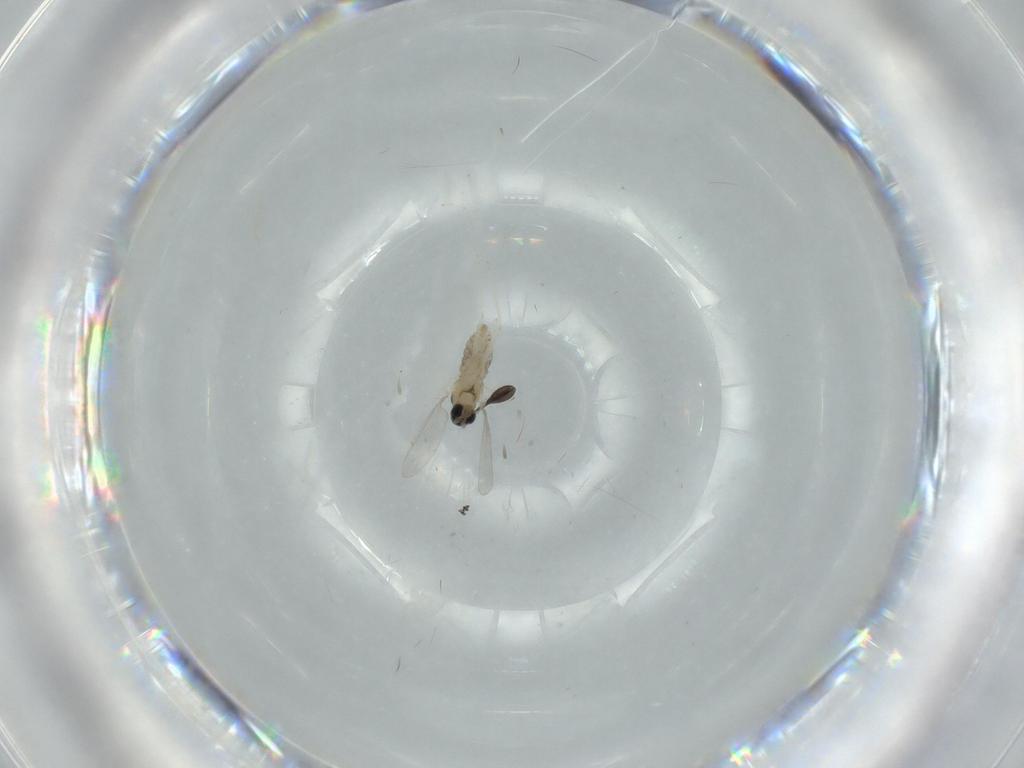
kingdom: Animalia
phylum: Arthropoda
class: Insecta
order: Diptera
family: Cecidomyiidae
